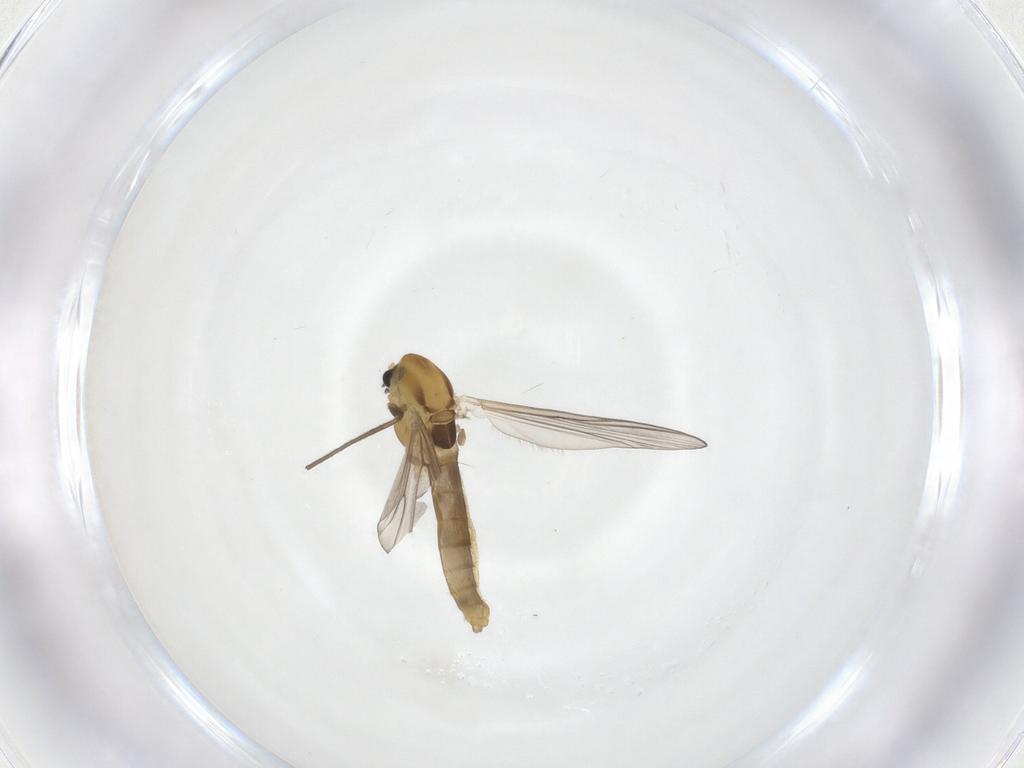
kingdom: Animalia
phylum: Arthropoda
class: Insecta
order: Diptera
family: Chironomidae
